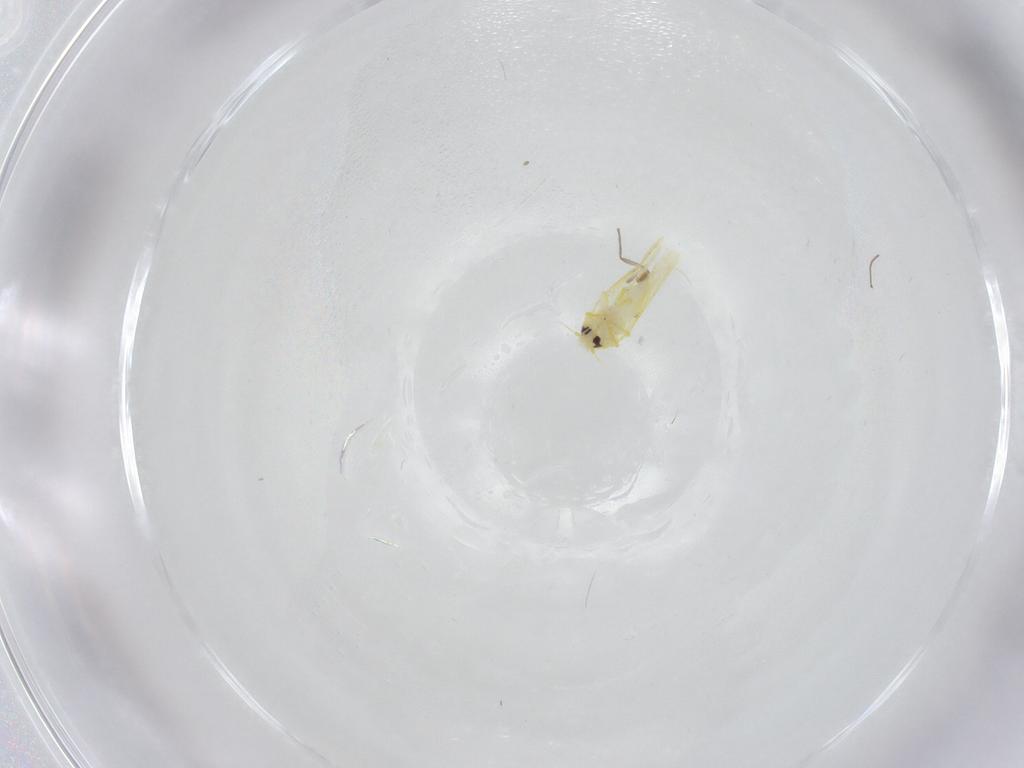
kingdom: Animalia
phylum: Arthropoda
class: Insecta
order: Hemiptera
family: Aleyrodidae
